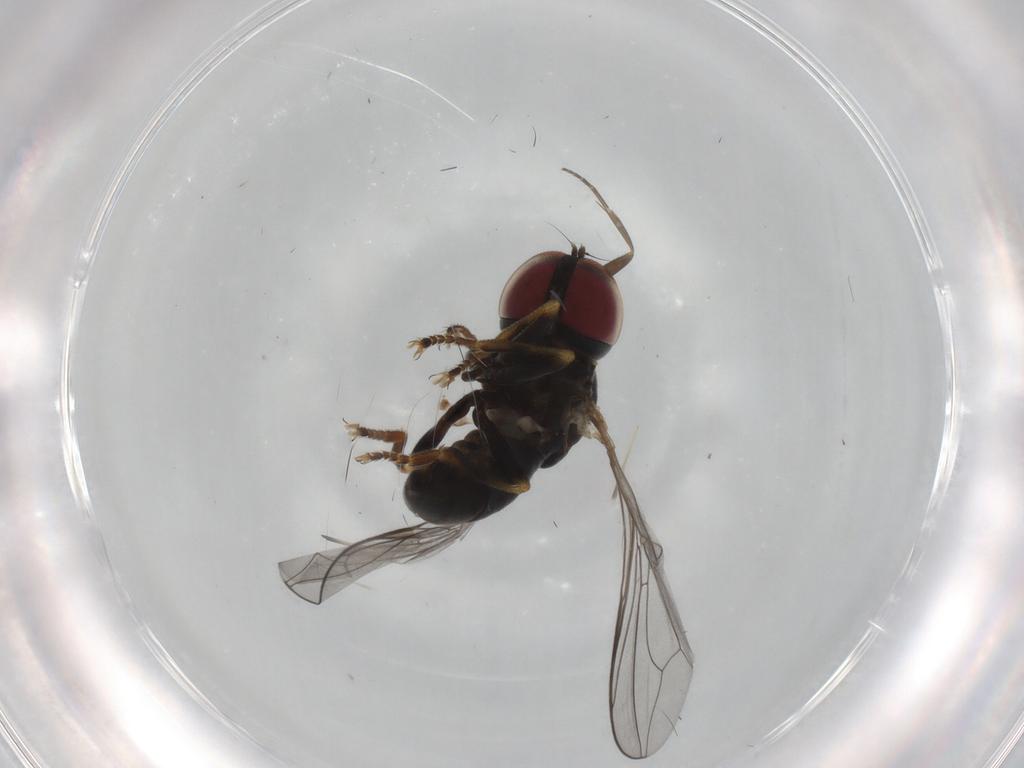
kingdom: Animalia
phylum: Arthropoda
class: Insecta
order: Diptera
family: Pipunculidae
